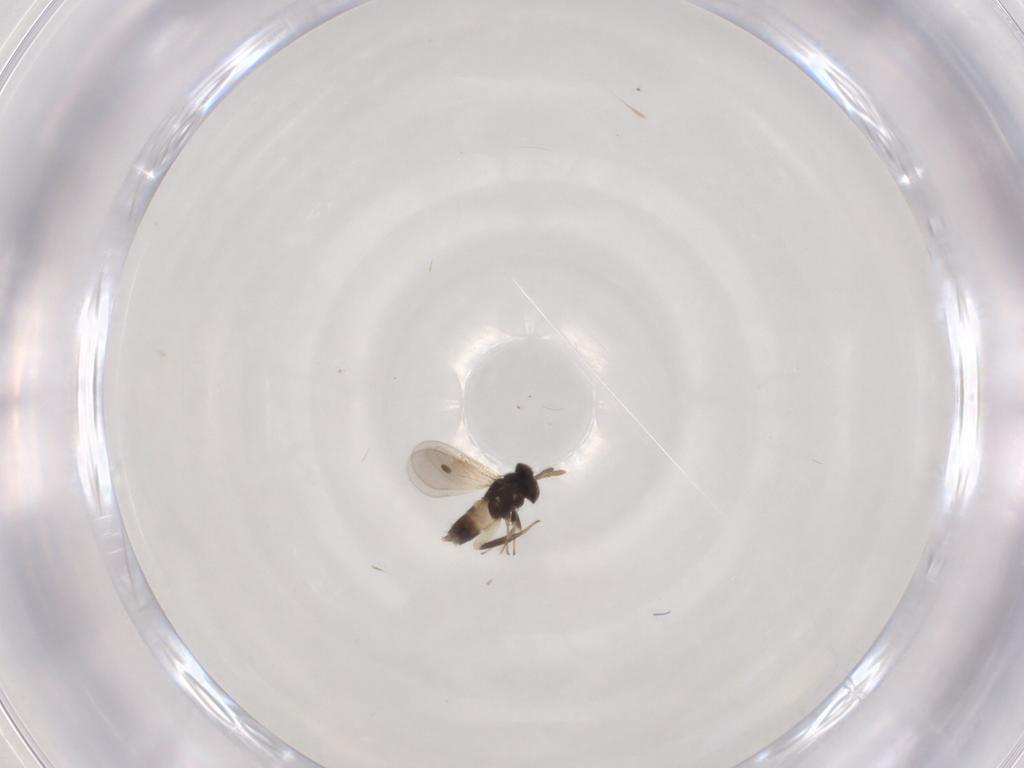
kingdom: Animalia
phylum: Arthropoda
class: Insecta
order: Hymenoptera
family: Aphelinidae
